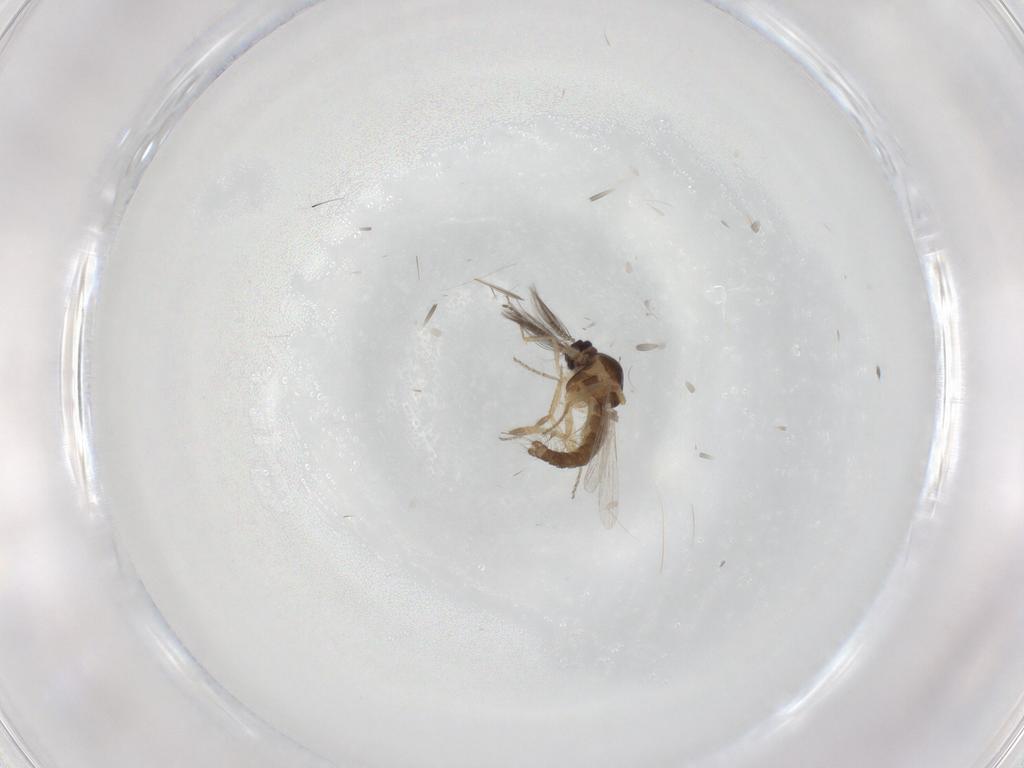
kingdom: Animalia
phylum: Arthropoda
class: Insecta
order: Diptera
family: Ceratopogonidae
